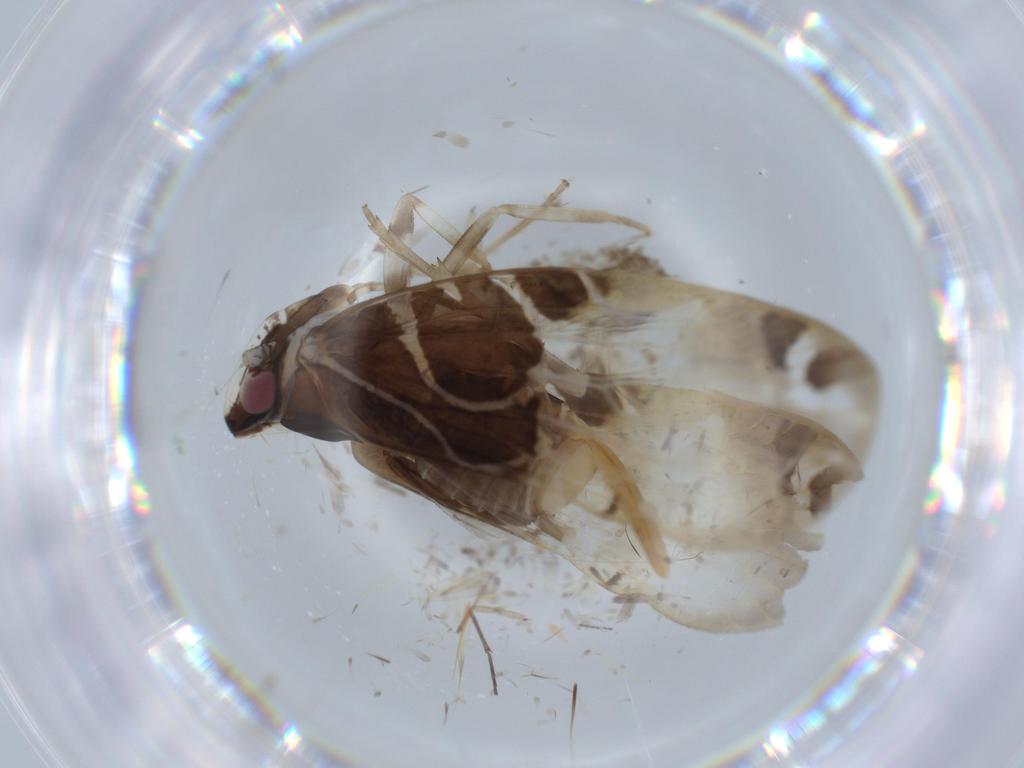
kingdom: Animalia
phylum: Arthropoda
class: Insecta
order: Hemiptera
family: Cixiidae
